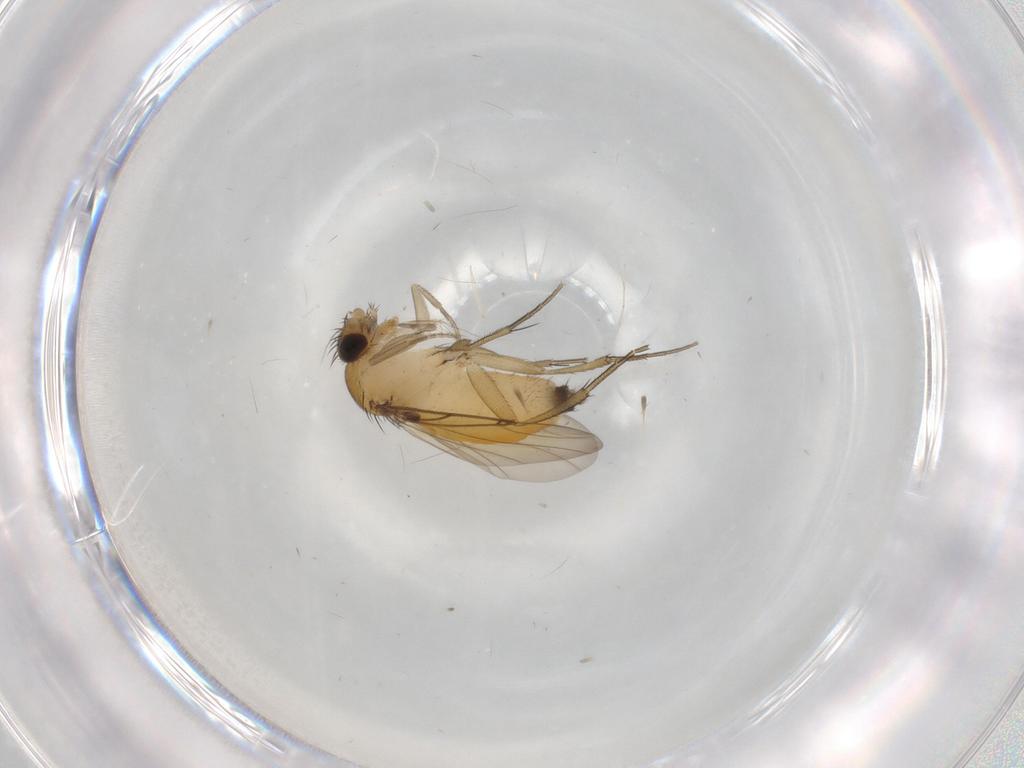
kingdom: Animalia
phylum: Arthropoda
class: Insecta
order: Diptera
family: Phoridae
